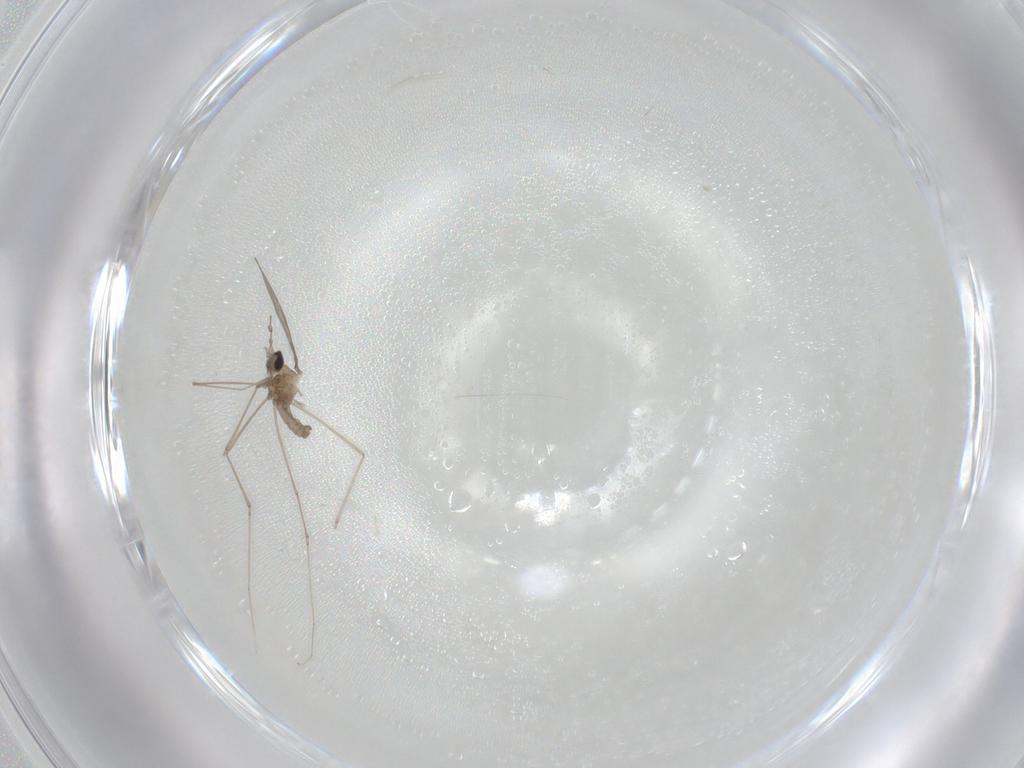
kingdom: Animalia
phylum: Arthropoda
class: Insecta
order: Diptera
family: Cecidomyiidae
